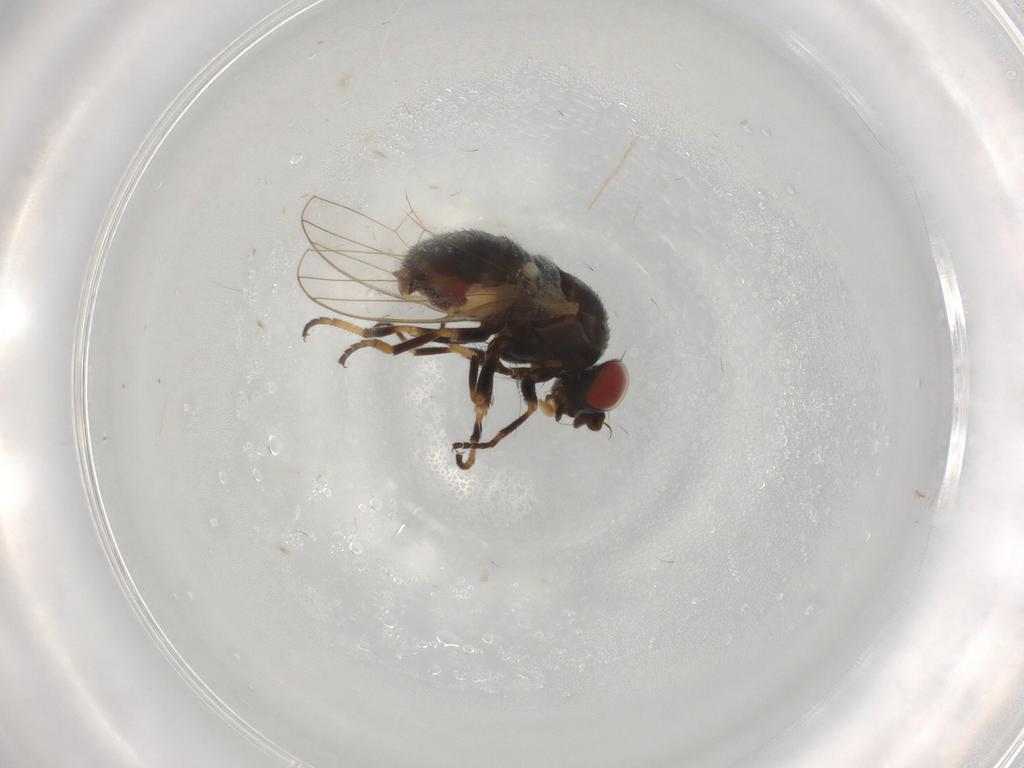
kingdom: Animalia
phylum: Arthropoda
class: Insecta
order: Diptera
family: Chamaemyiidae
